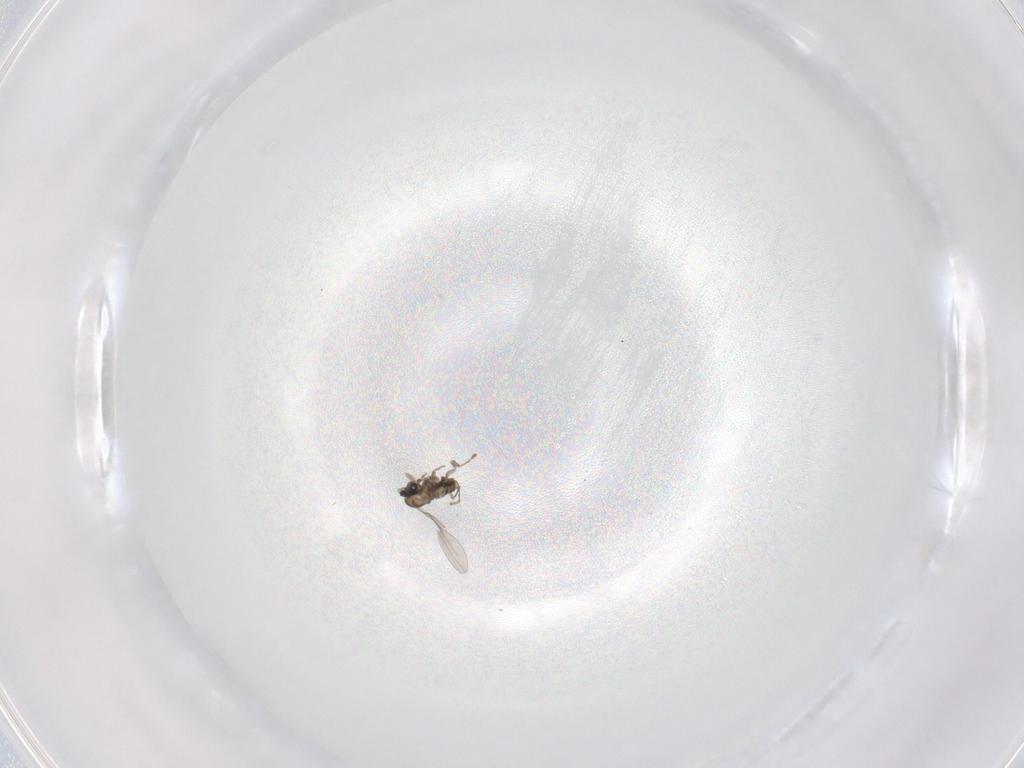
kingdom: Animalia
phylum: Arthropoda
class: Insecta
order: Diptera
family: Cecidomyiidae
